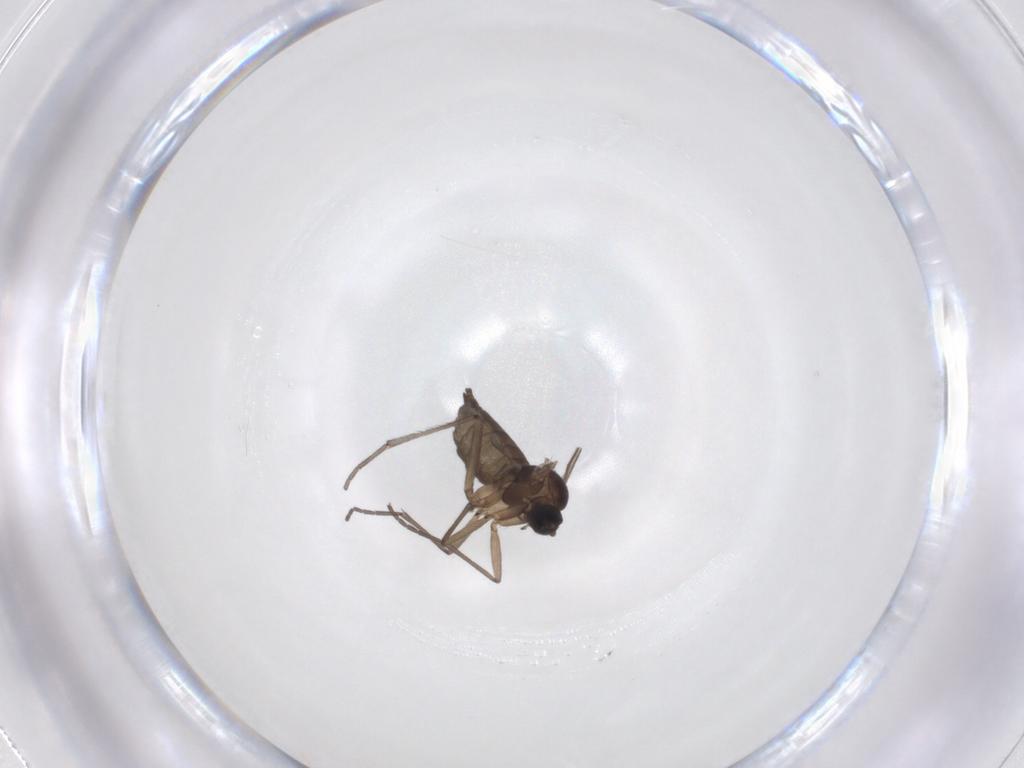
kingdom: Animalia
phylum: Arthropoda
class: Insecta
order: Diptera
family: Sciaridae
